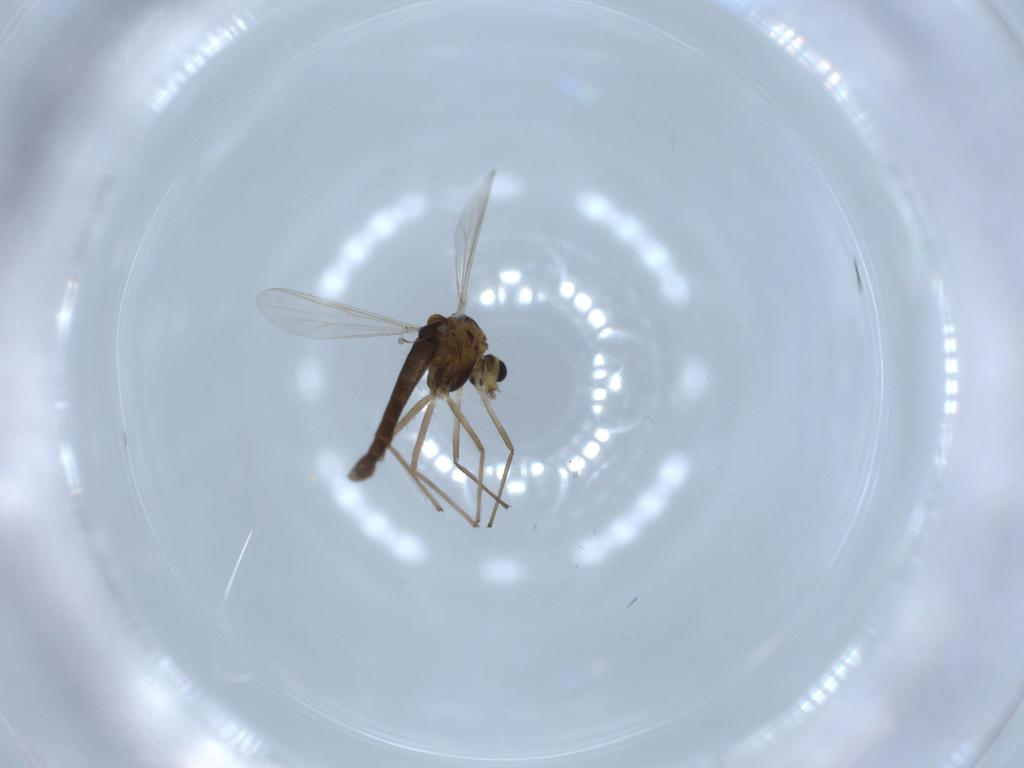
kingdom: Animalia
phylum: Arthropoda
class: Insecta
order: Diptera
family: Chironomidae
